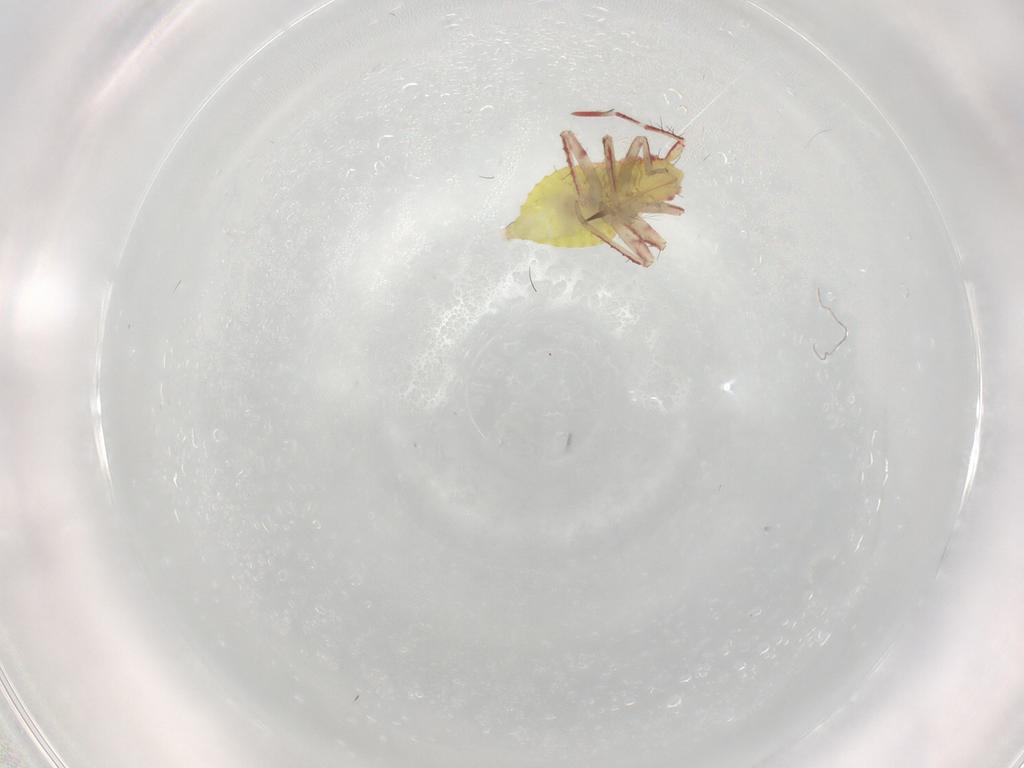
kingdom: Animalia
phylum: Arthropoda
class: Insecta
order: Hemiptera
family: Miridae
